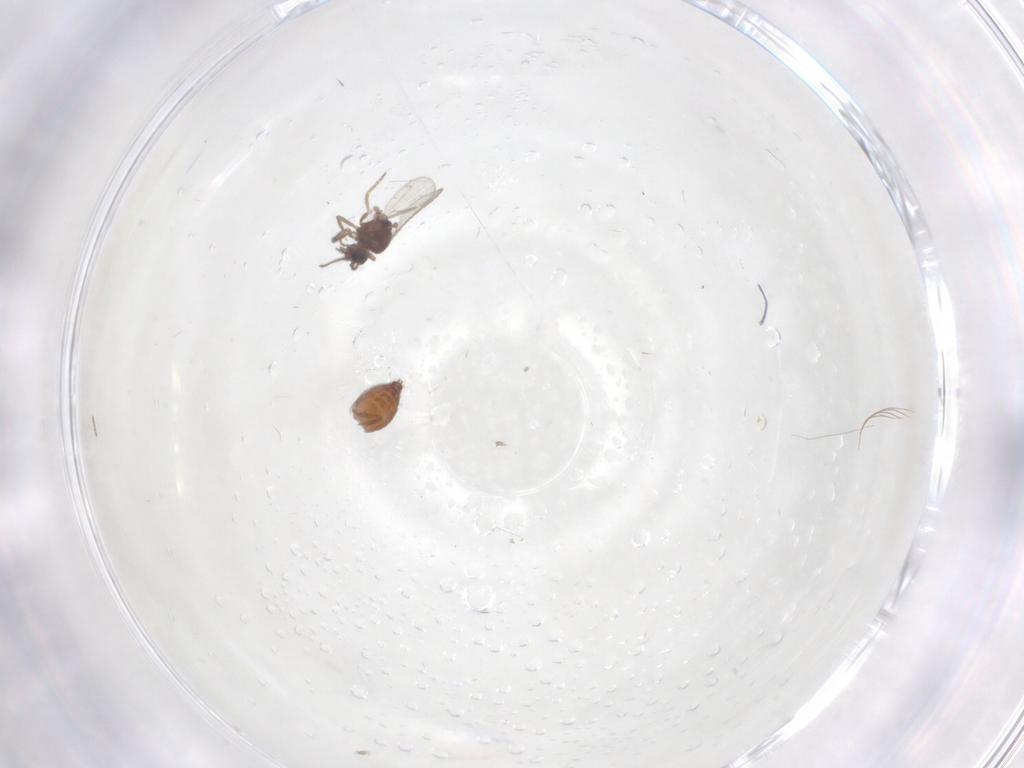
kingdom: Animalia
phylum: Arthropoda
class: Insecta
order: Diptera
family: Ceratopogonidae
